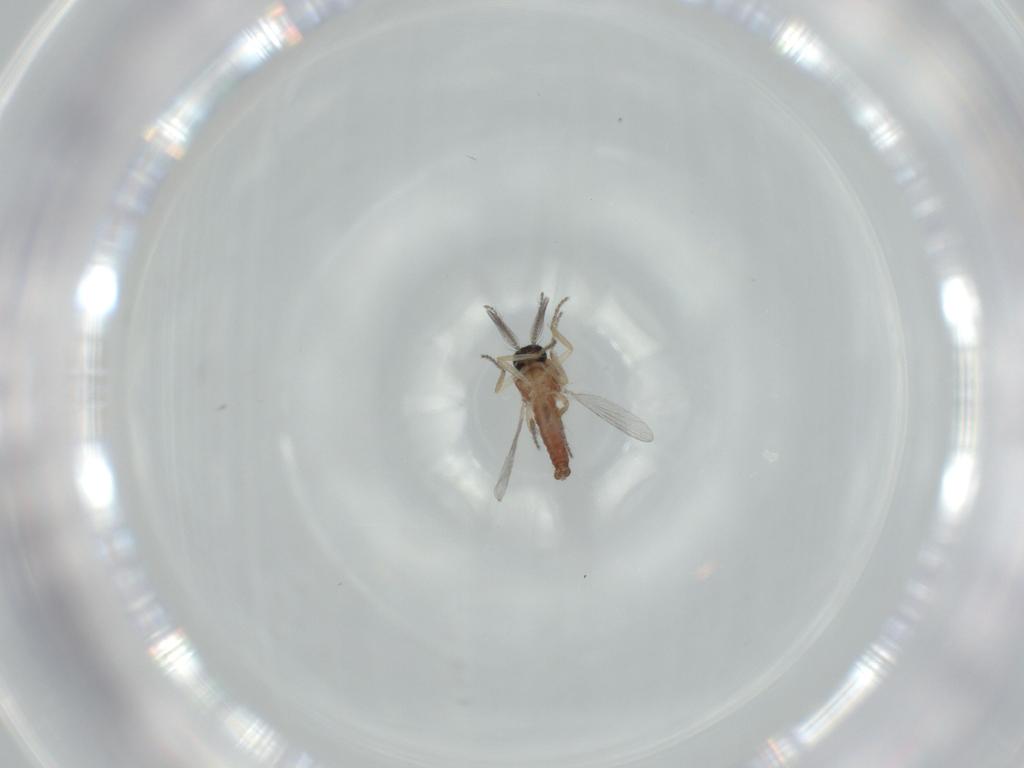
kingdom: Animalia
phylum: Arthropoda
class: Insecta
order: Diptera
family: Ceratopogonidae
